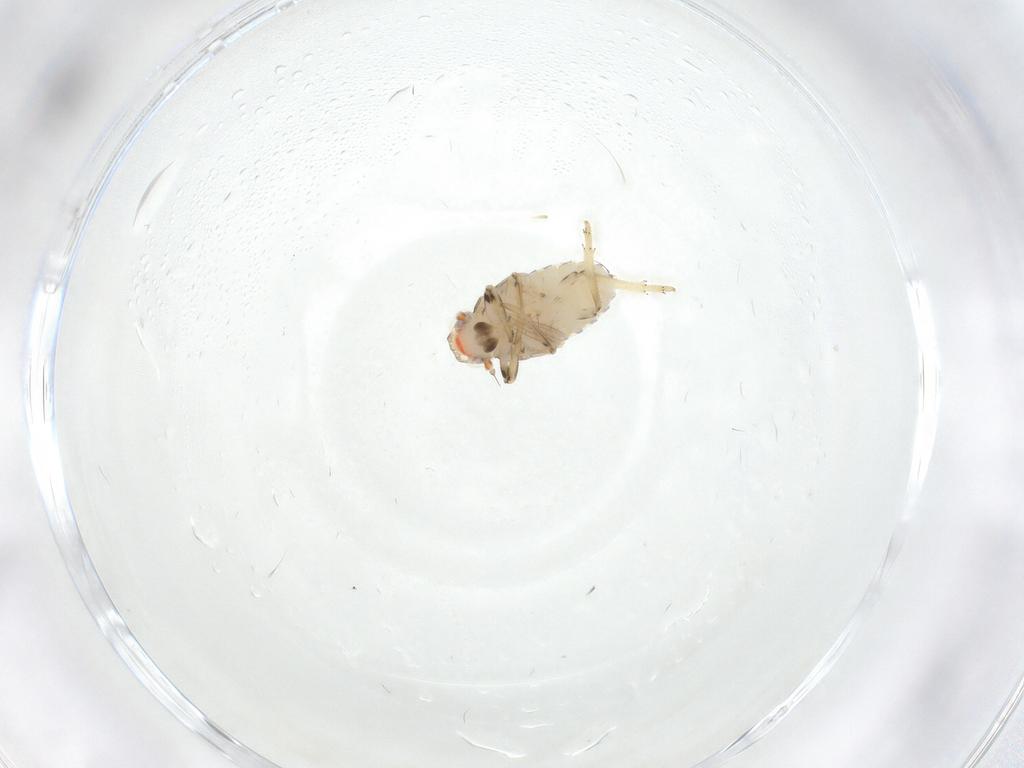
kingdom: Animalia
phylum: Arthropoda
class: Insecta
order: Hemiptera
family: Issidae
